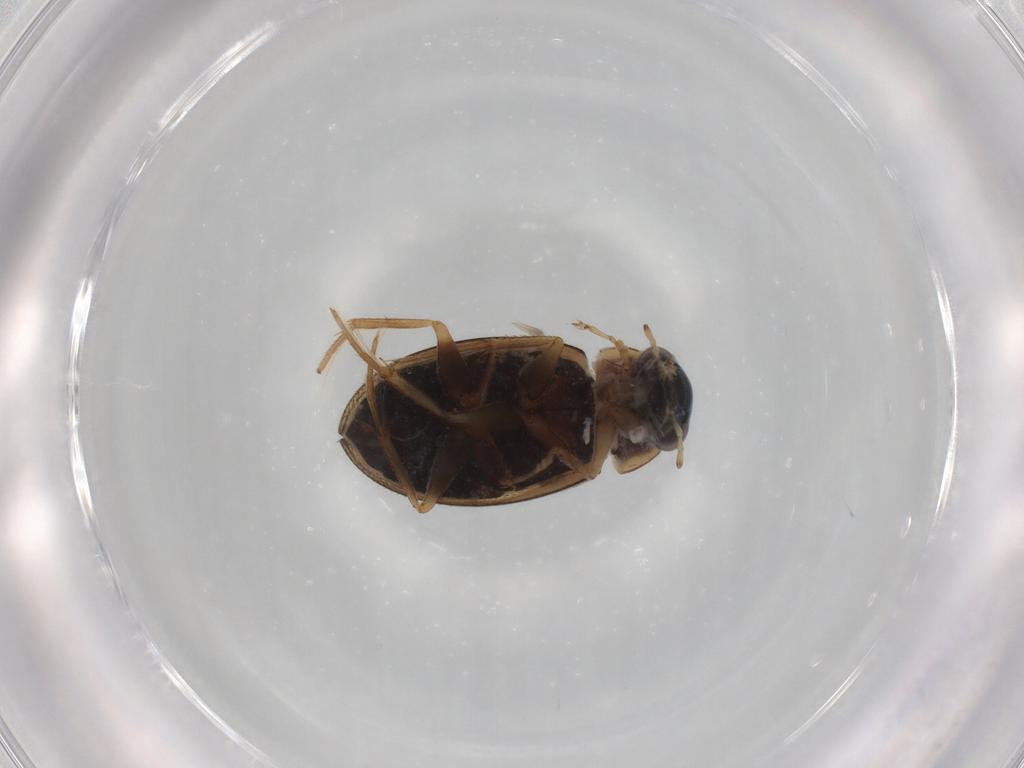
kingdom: Animalia
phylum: Arthropoda
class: Insecta
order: Coleoptera
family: Hydrophilidae
